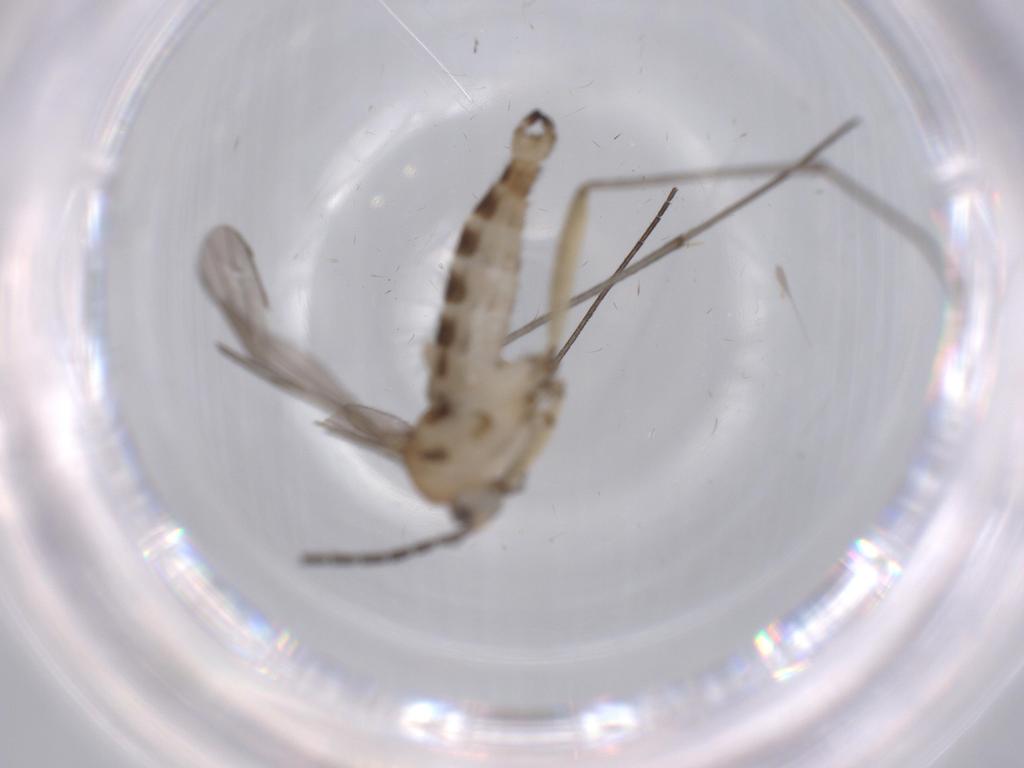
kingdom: Animalia
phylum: Arthropoda
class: Insecta
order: Diptera
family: Sciaridae
